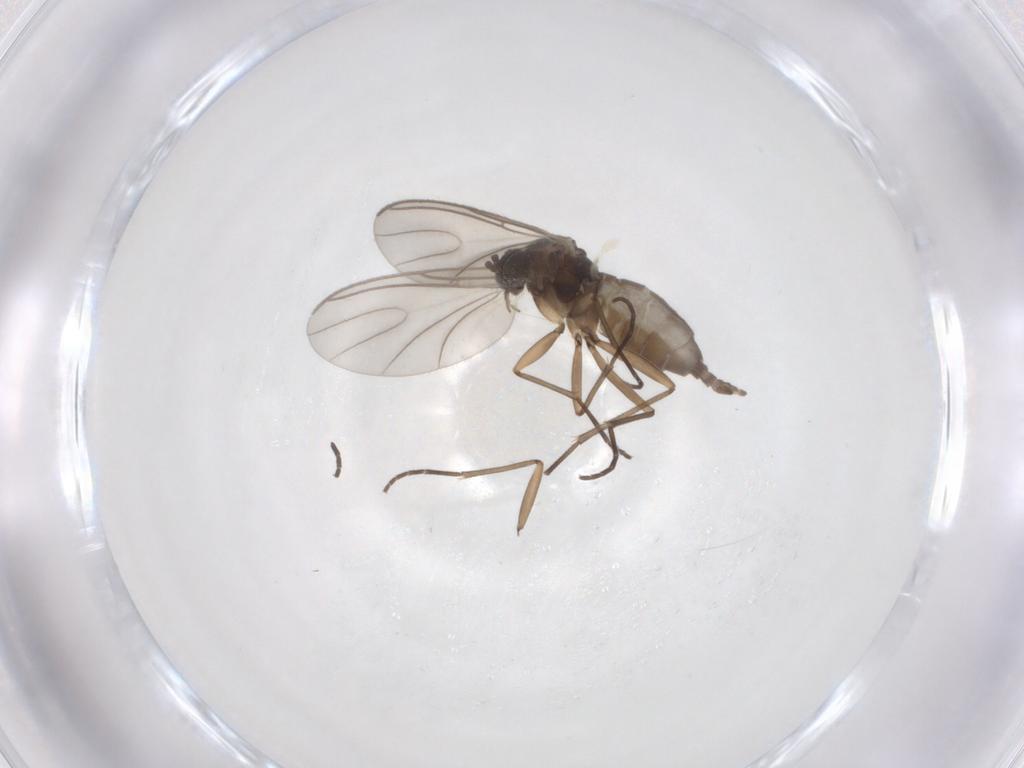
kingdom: Animalia
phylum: Arthropoda
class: Insecta
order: Diptera
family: Sciaridae
